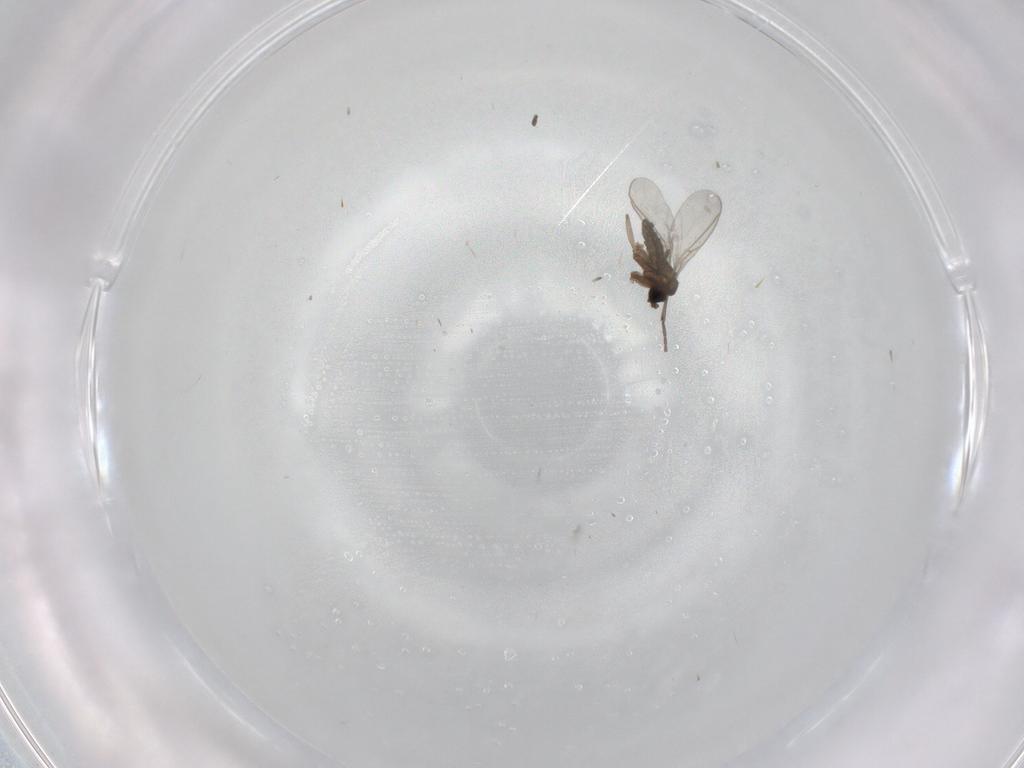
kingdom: Animalia
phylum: Arthropoda
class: Insecta
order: Diptera
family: Sciaridae
